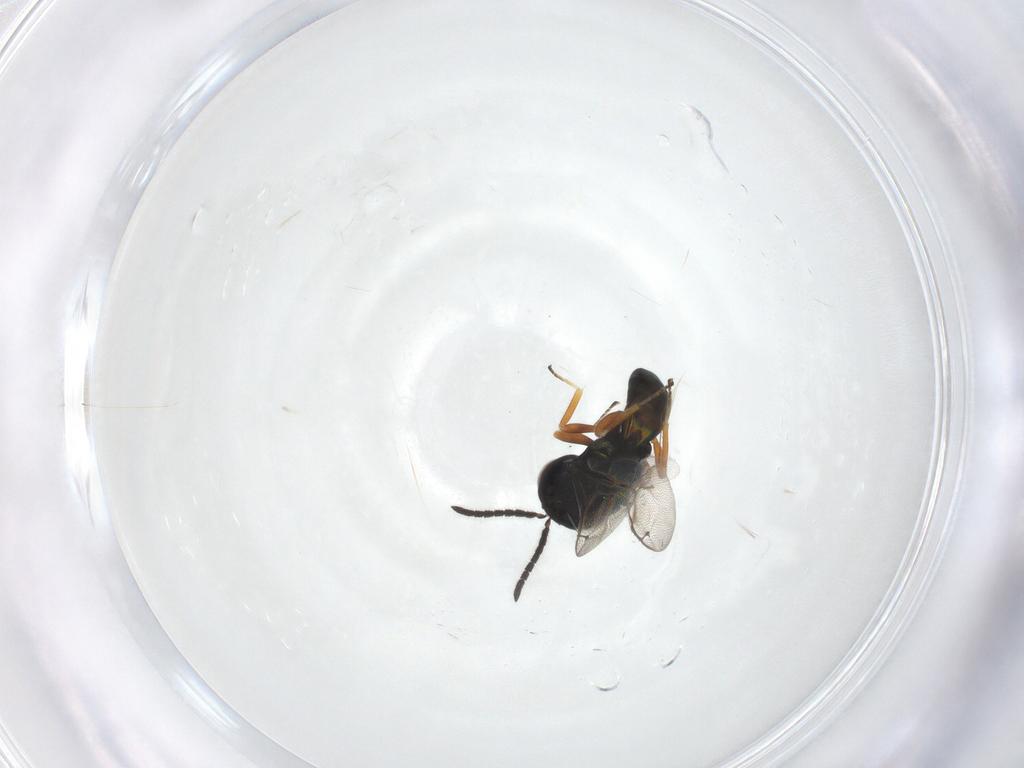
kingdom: Animalia
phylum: Arthropoda
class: Insecta
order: Hymenoptera
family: Pteromalidae
